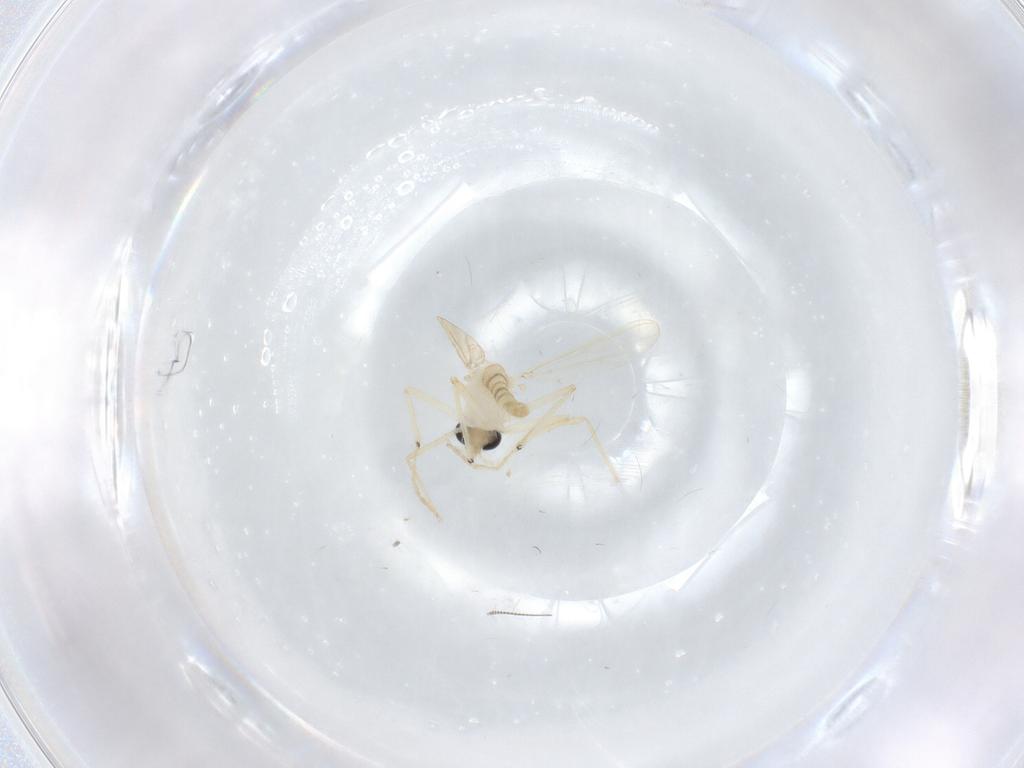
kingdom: Animalia
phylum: Arthropoda
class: Insecta
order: Diptera
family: Chironomidae
